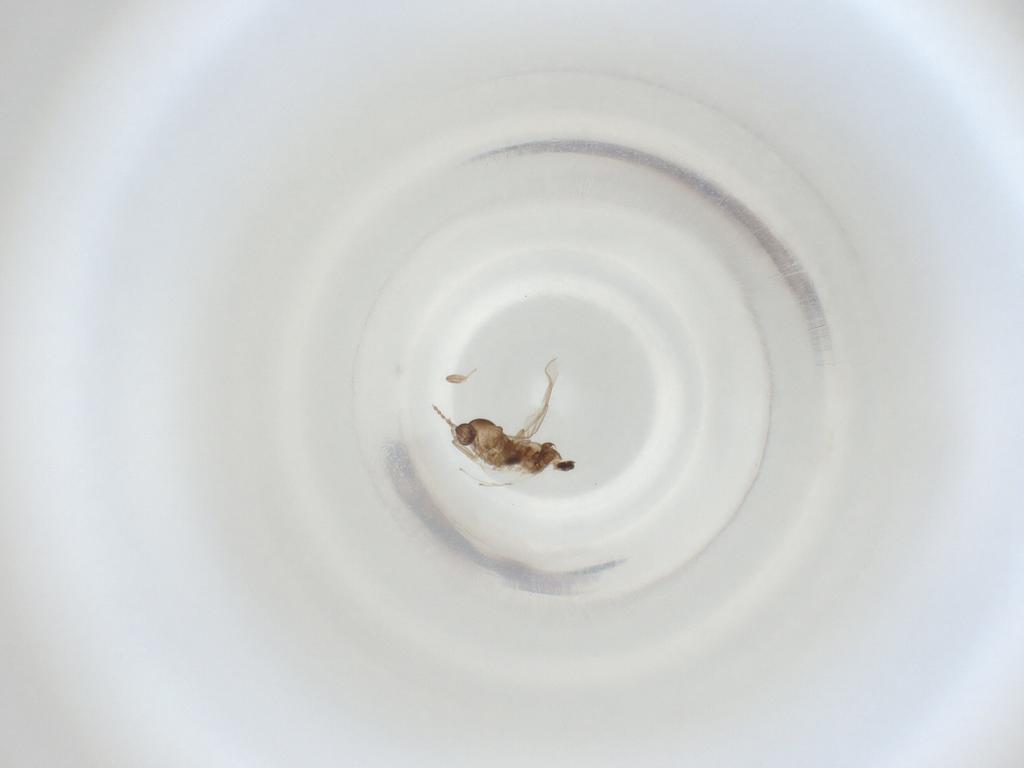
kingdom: Animalia
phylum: Arthropoda
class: Insecta
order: Diptera
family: Cecidomyiidae
